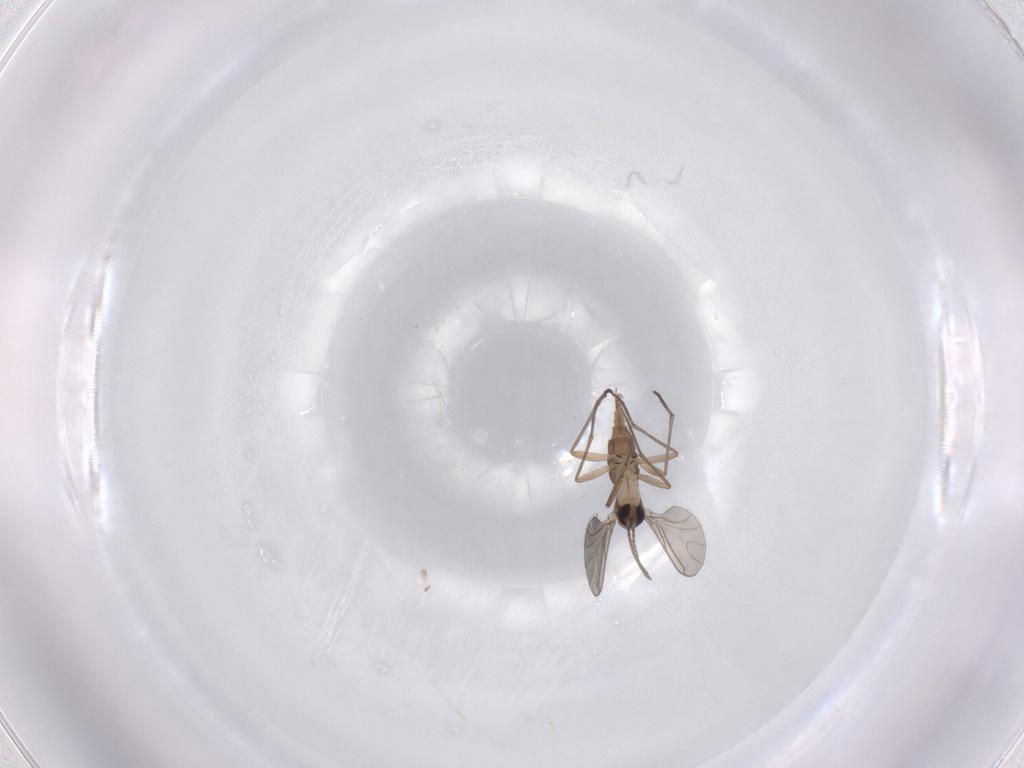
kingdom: Animalia
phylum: Arthropoda
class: Insecta
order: Diptera
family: Sciaridae
